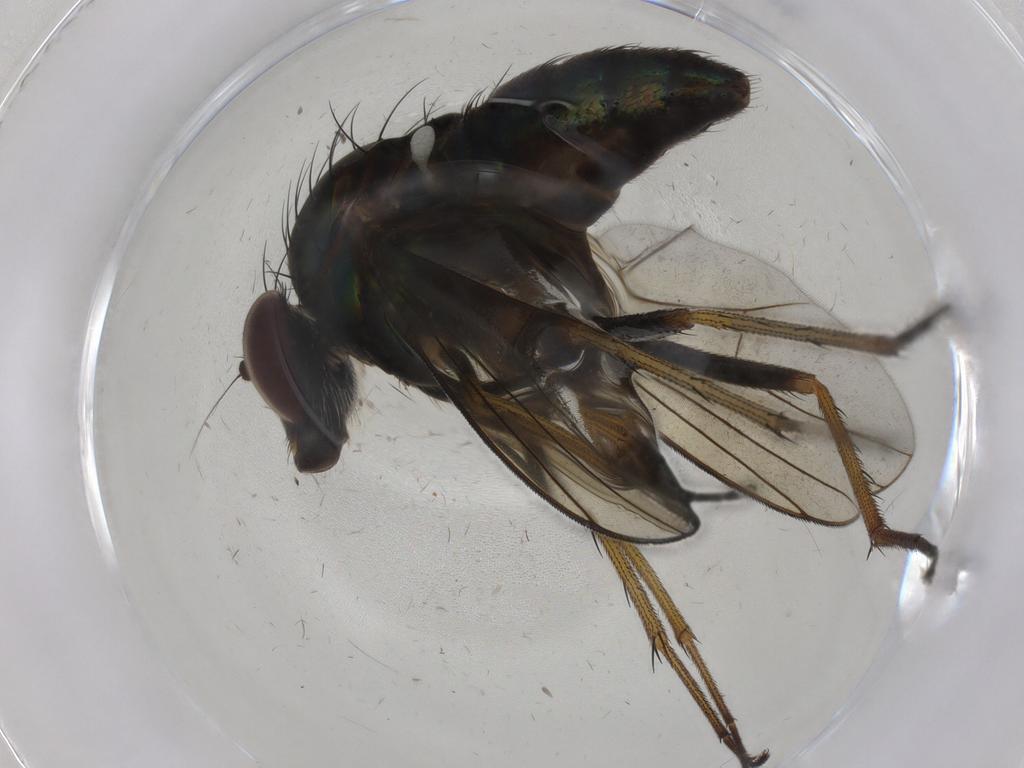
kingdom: Animalia
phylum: Arthropoda
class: Insecta
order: Diptera
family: Dolichopodidae
